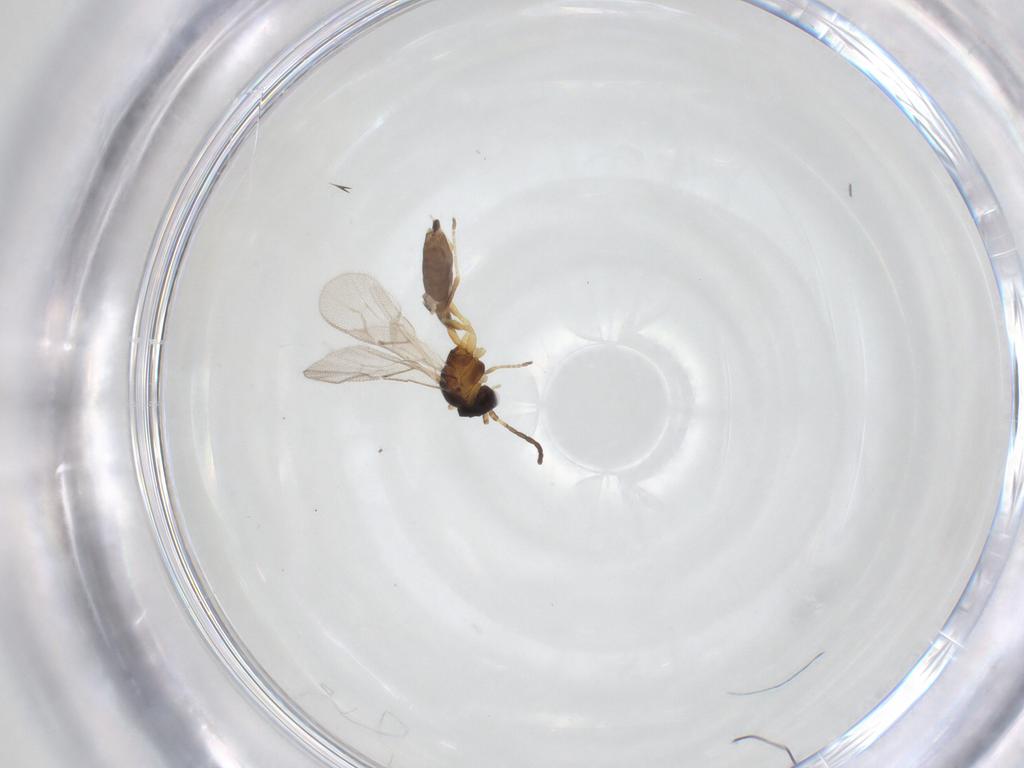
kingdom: Animalia
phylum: Arthropoda
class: Insecta
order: Hymenoptera
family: Braconidae
